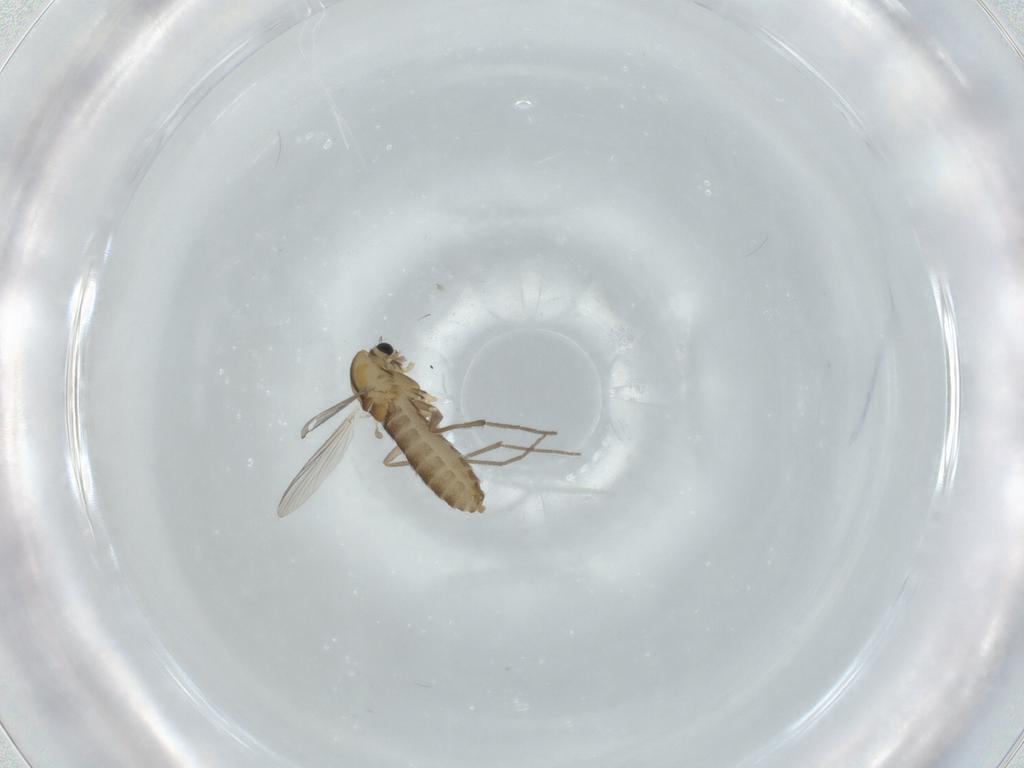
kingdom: Animalia
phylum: Arthropoda
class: Insecta
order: Diptera
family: Chironomidae
